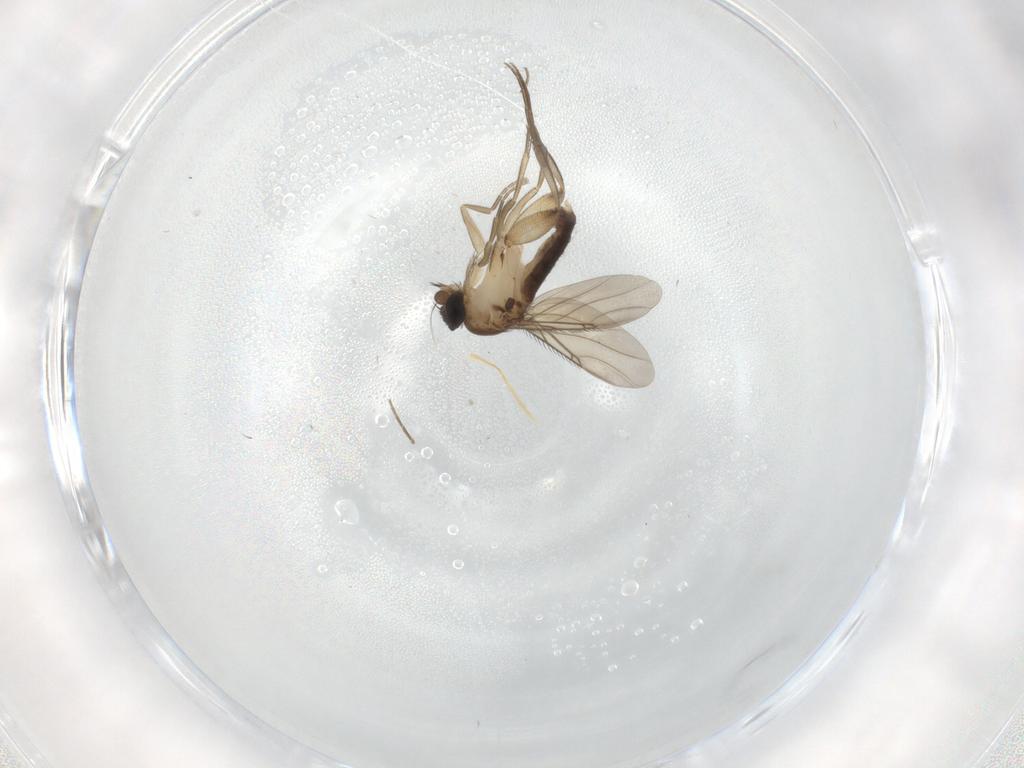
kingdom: Animalia
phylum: Arthropoda
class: Insecta
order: Diptera
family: Phoridae
